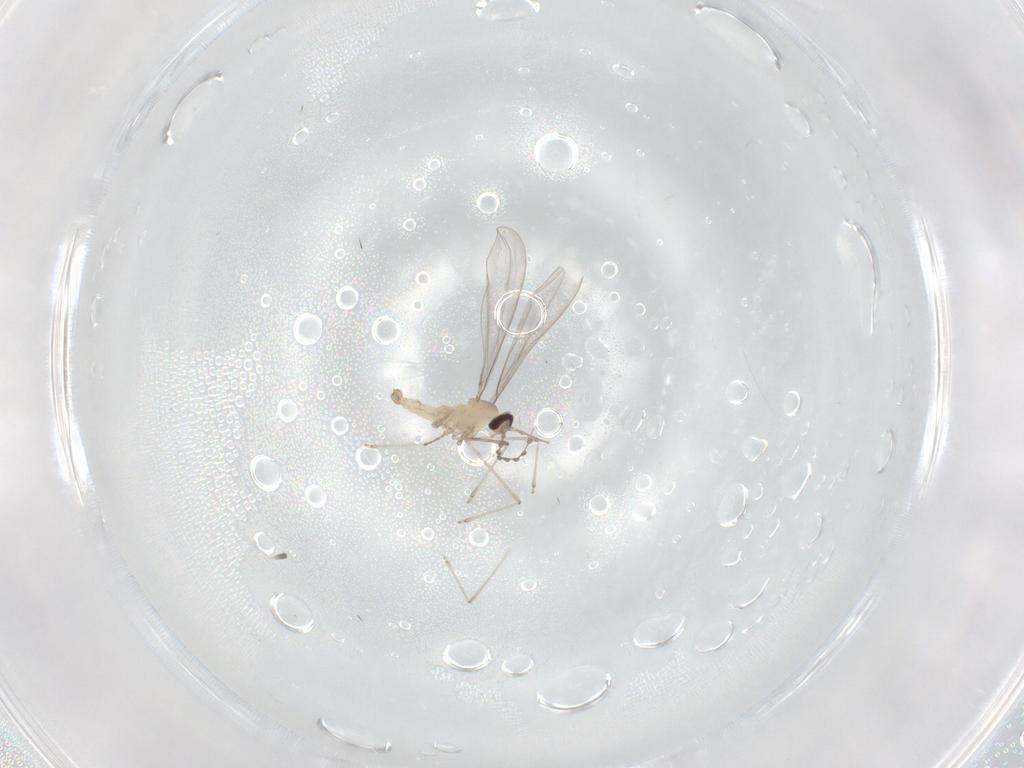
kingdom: Animalia
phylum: Arthropoda
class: Insecta
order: Diptera
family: Cecidomyiidae
